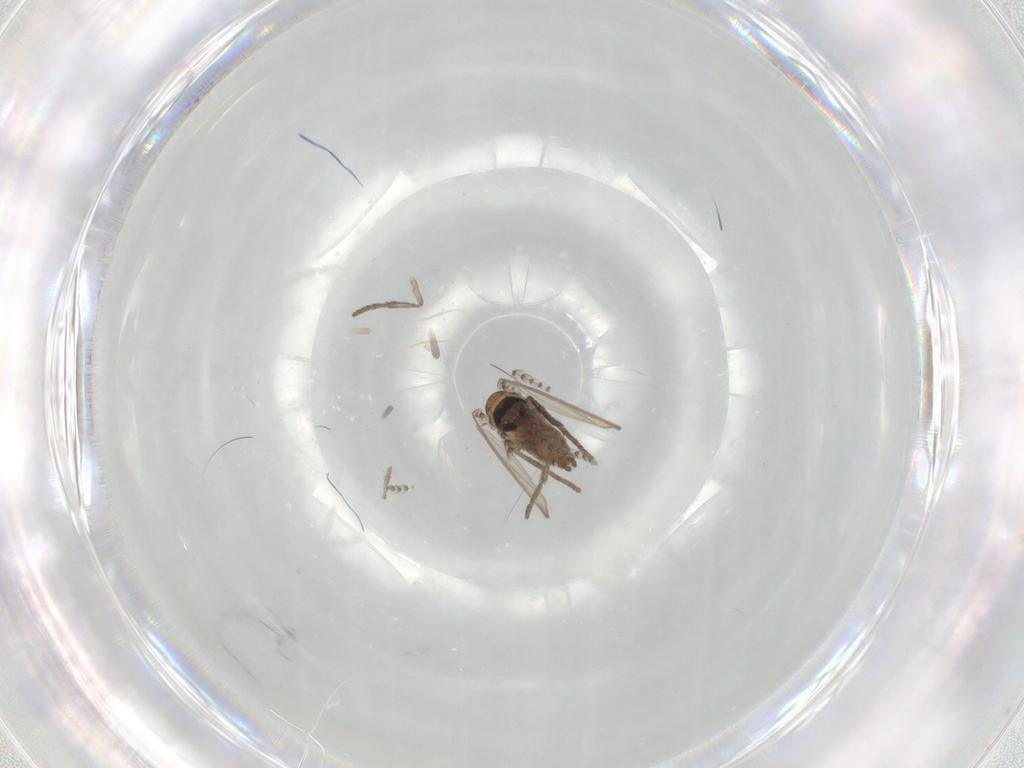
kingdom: Animalia
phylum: Arthropoda
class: Insecta
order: Diptera
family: Psychodidae
